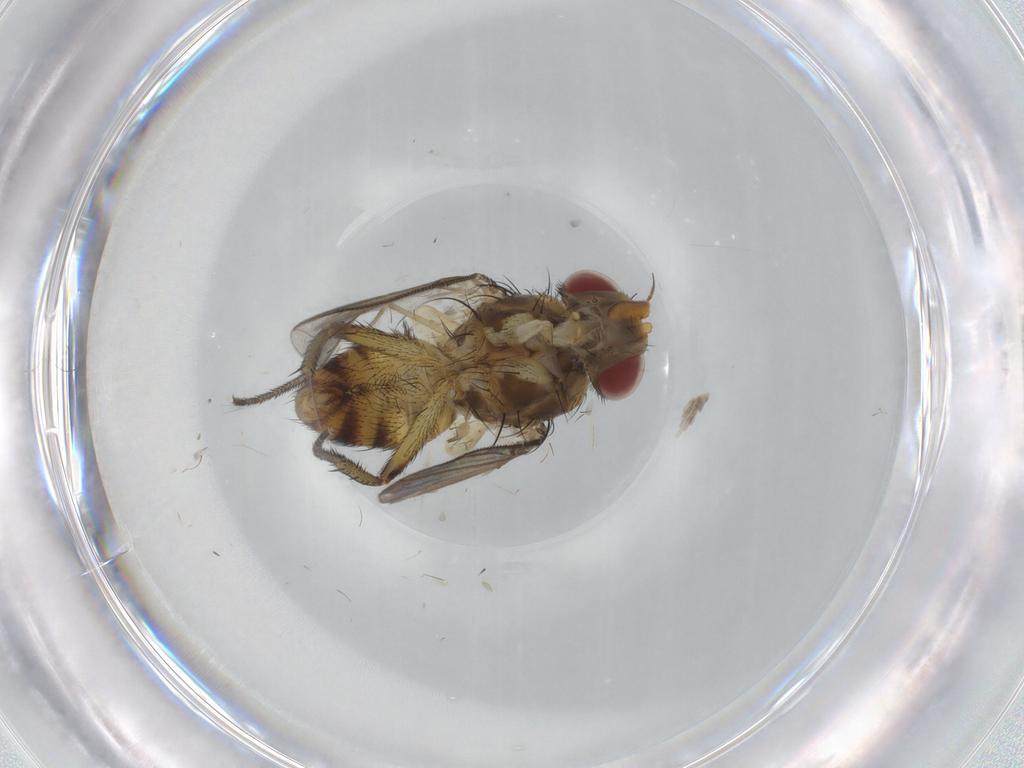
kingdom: Animalia
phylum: Arthropoda
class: Insecta
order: Diptera
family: Tachinidae
